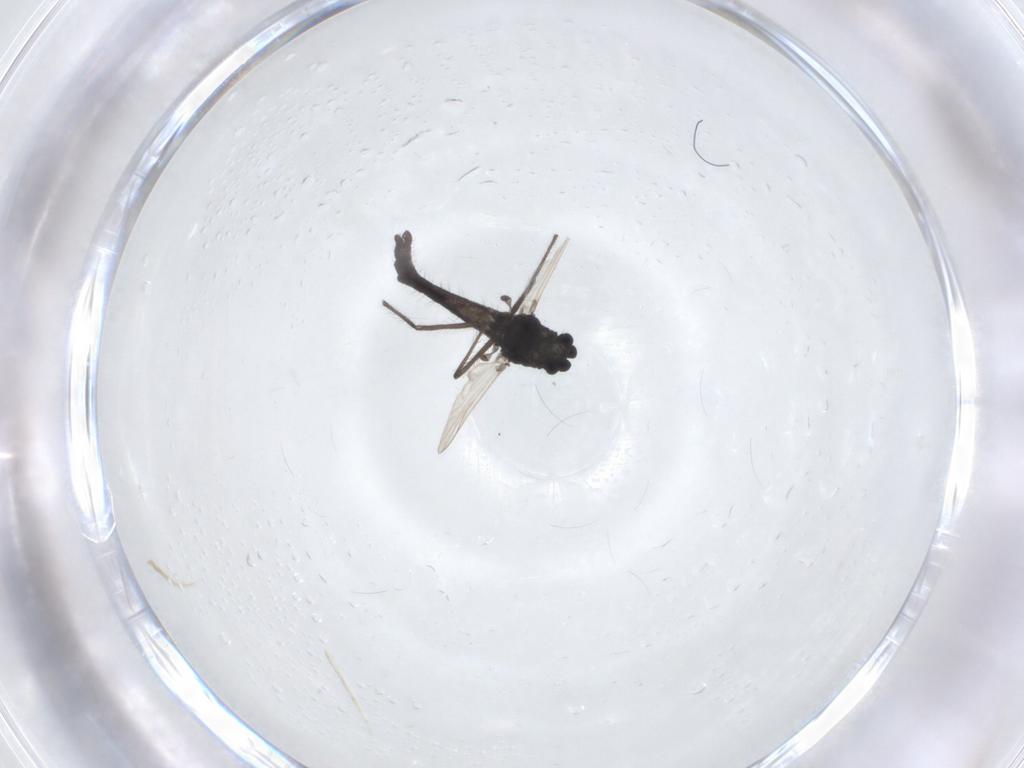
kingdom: Animalia
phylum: Arthropoda
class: Insecta
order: Diptera
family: Chironomidae
